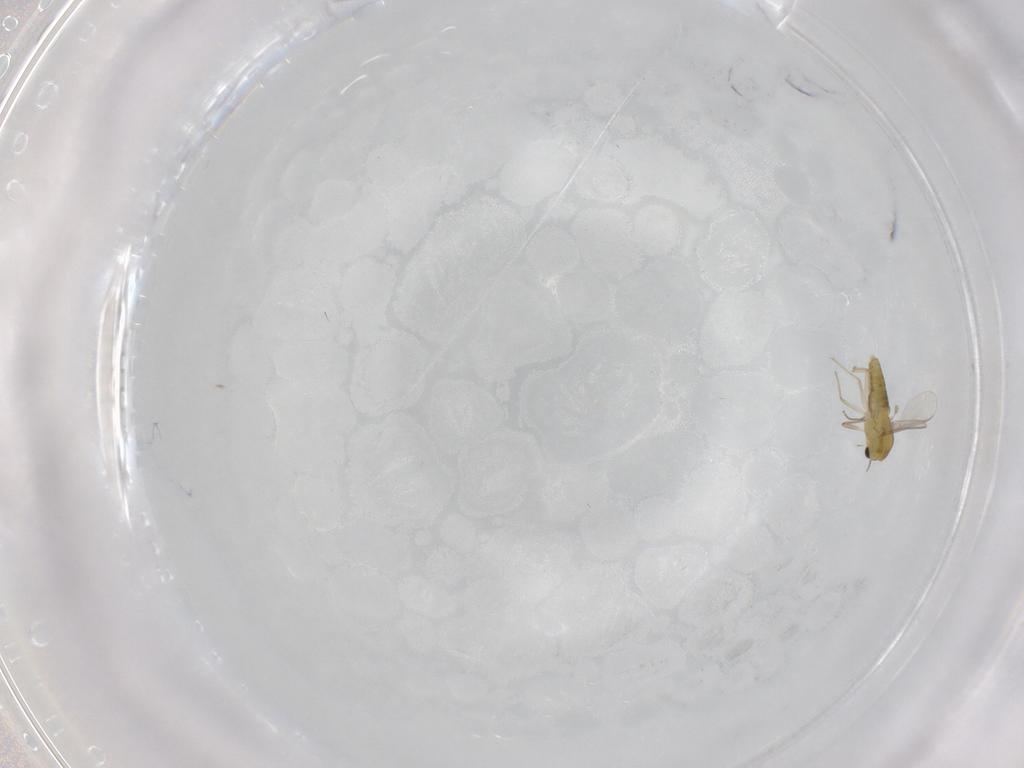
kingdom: Animalia
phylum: Arthropoda
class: Insecta
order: Diptera
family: Chironomidae
